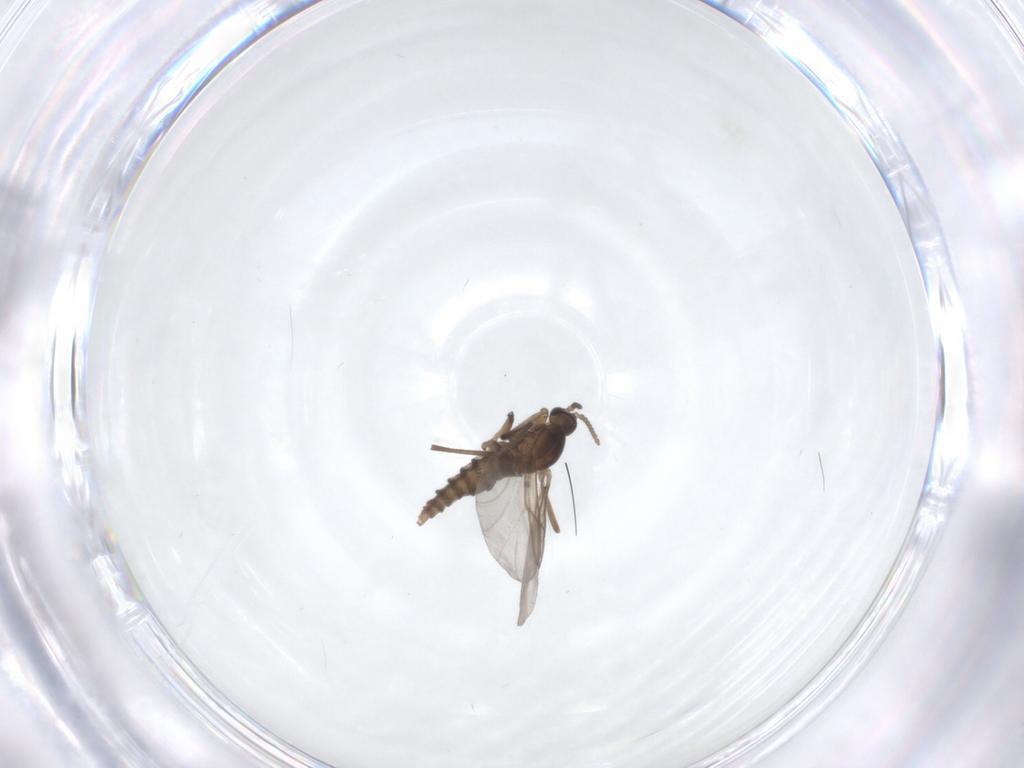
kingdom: Animalia
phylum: Arthropoda
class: Insecta
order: Diptera
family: Cecidomyiidae
